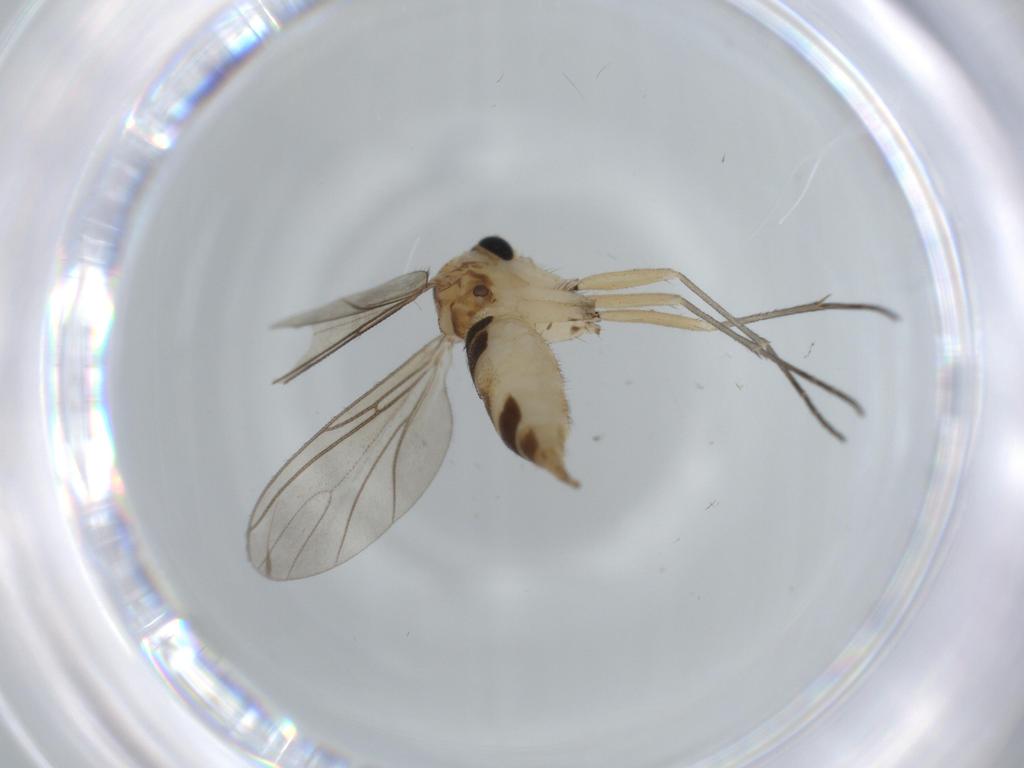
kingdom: Animalia
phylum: Arthropoda
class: Insecta
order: Diptera
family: Sciaridae
